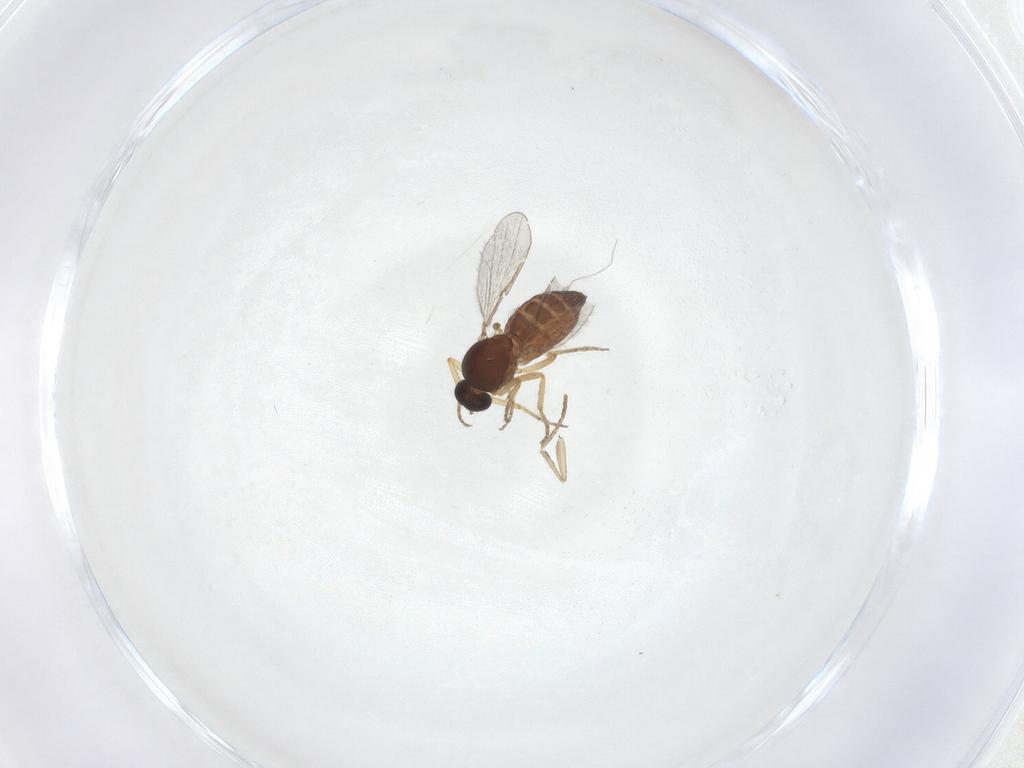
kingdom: Animalia
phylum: Arthropoda
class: Insecta
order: Diptera
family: Ceratopogonidae
